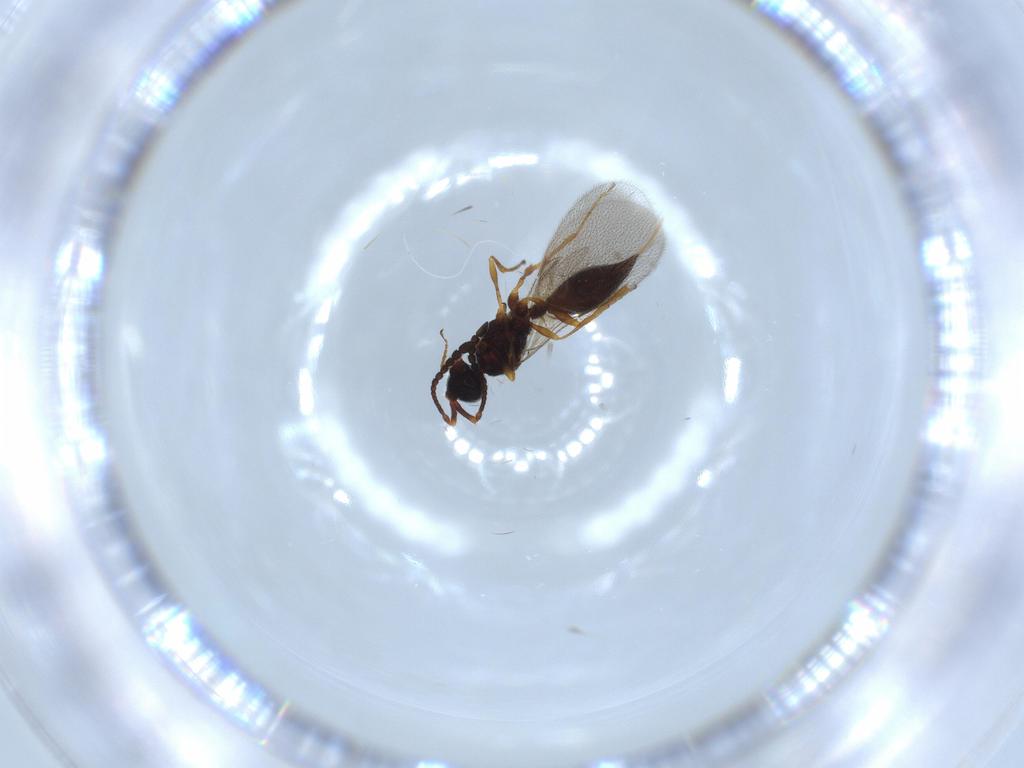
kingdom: Animalia
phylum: Arthropoda
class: Insecta
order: Hymenoptera
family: Diapriidae
